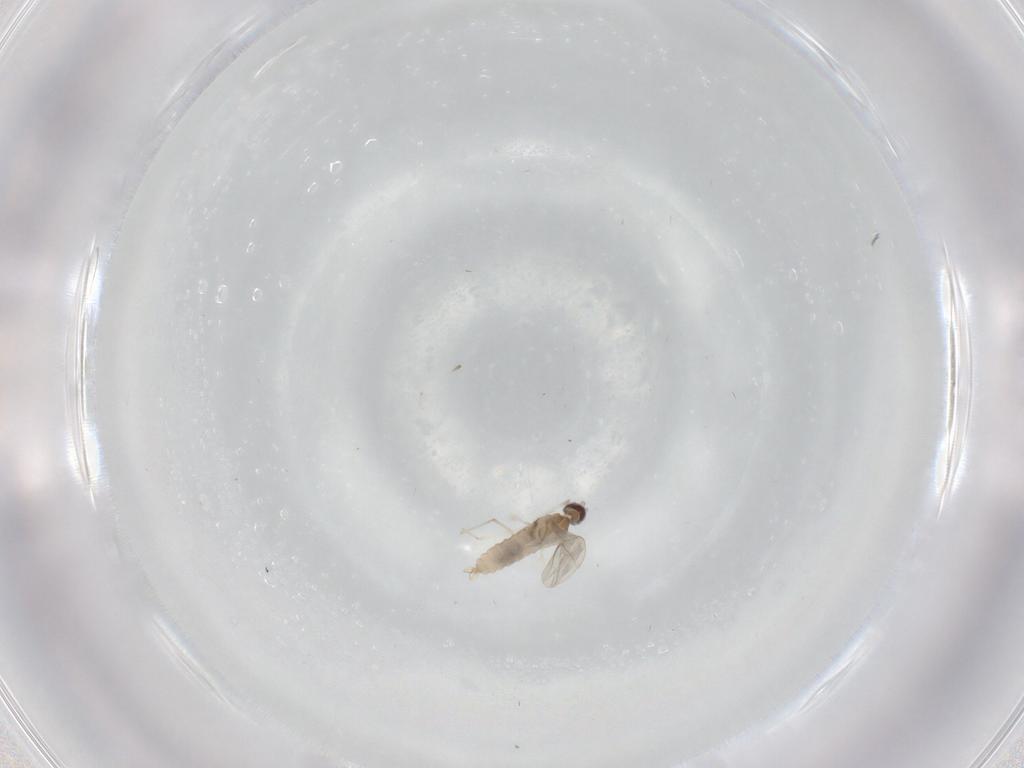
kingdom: Animalia
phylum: Arthropoda
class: Insecta
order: Diptera
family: Cecidomyiidae
